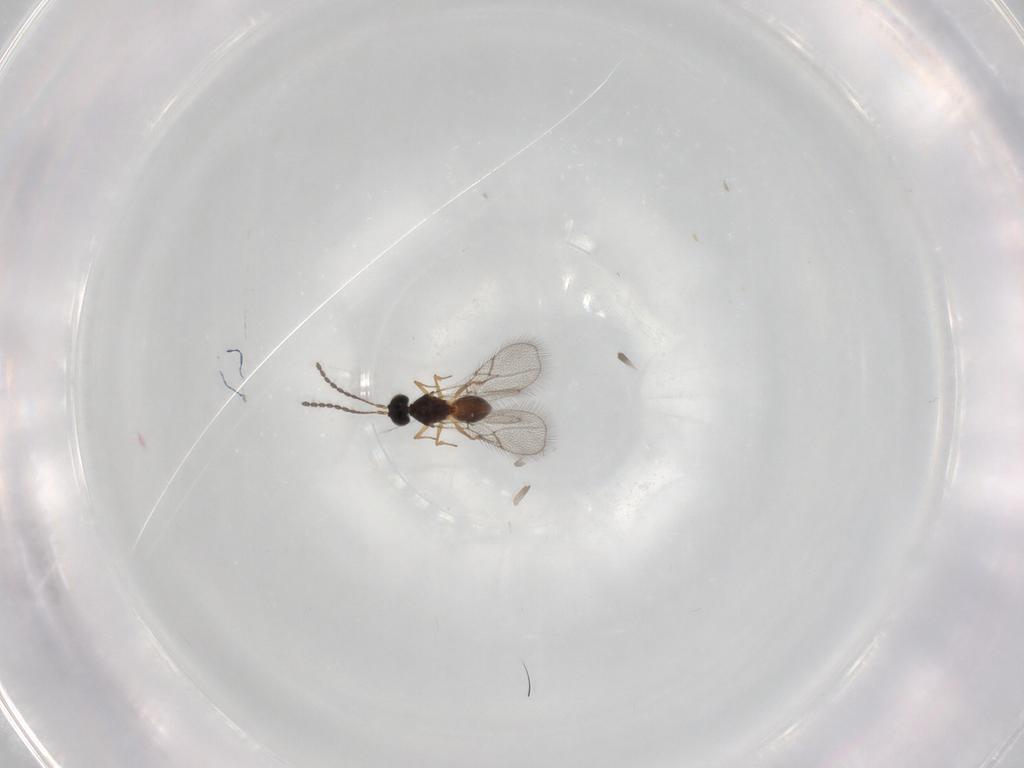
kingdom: Animalia
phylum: Arthropoda
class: Insecta
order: Hymenoptera
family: Figitidae
